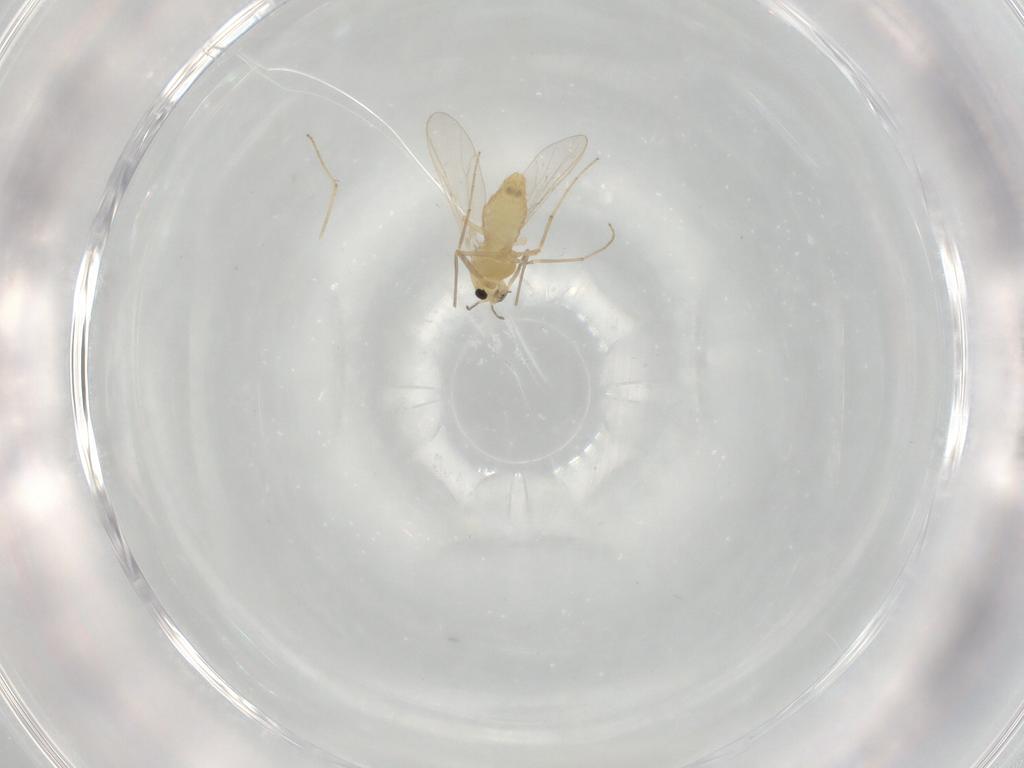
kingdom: Animalia
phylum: Arthropoda
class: Insecta
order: Diptera
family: Chironomidae
